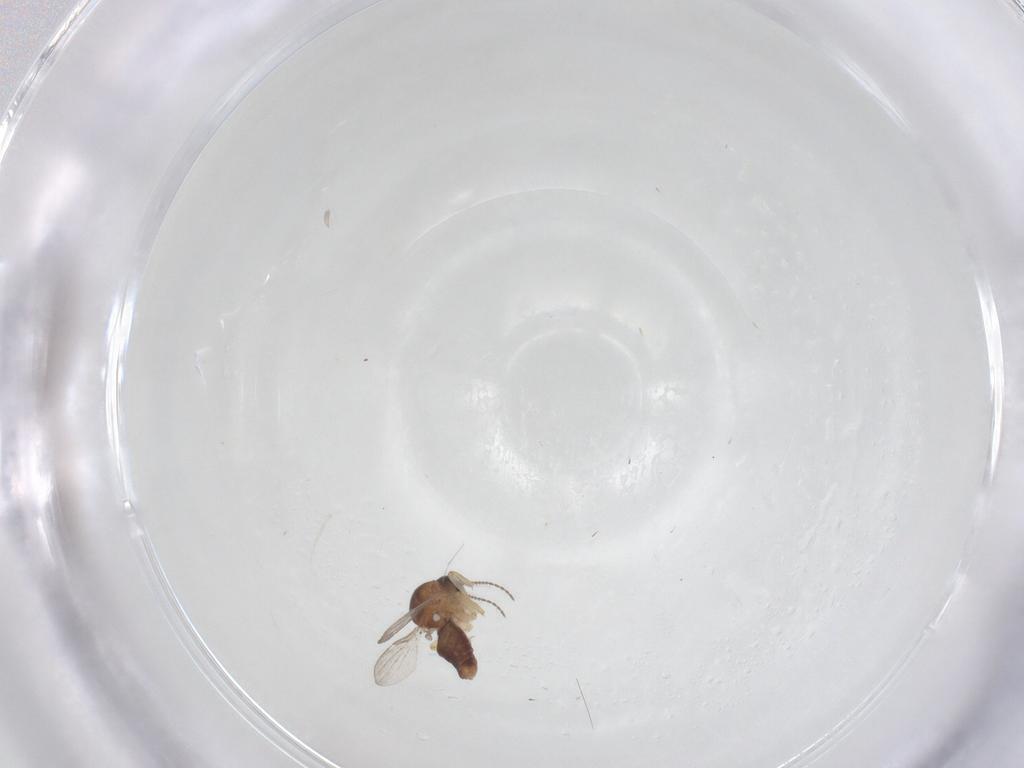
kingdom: Animalia
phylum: Arthropoda
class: Insecta
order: Diptera
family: Ceratopogonidae
